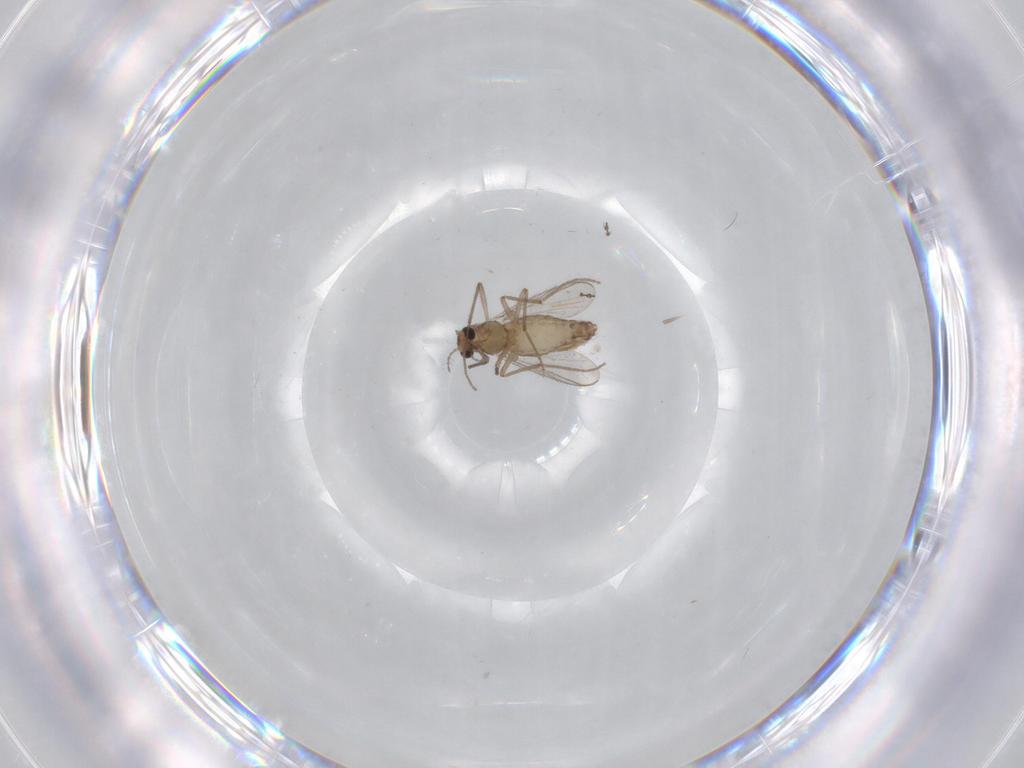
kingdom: Animalia
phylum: Arthropoda
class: Insecta
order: Diptera
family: Chironomidae
